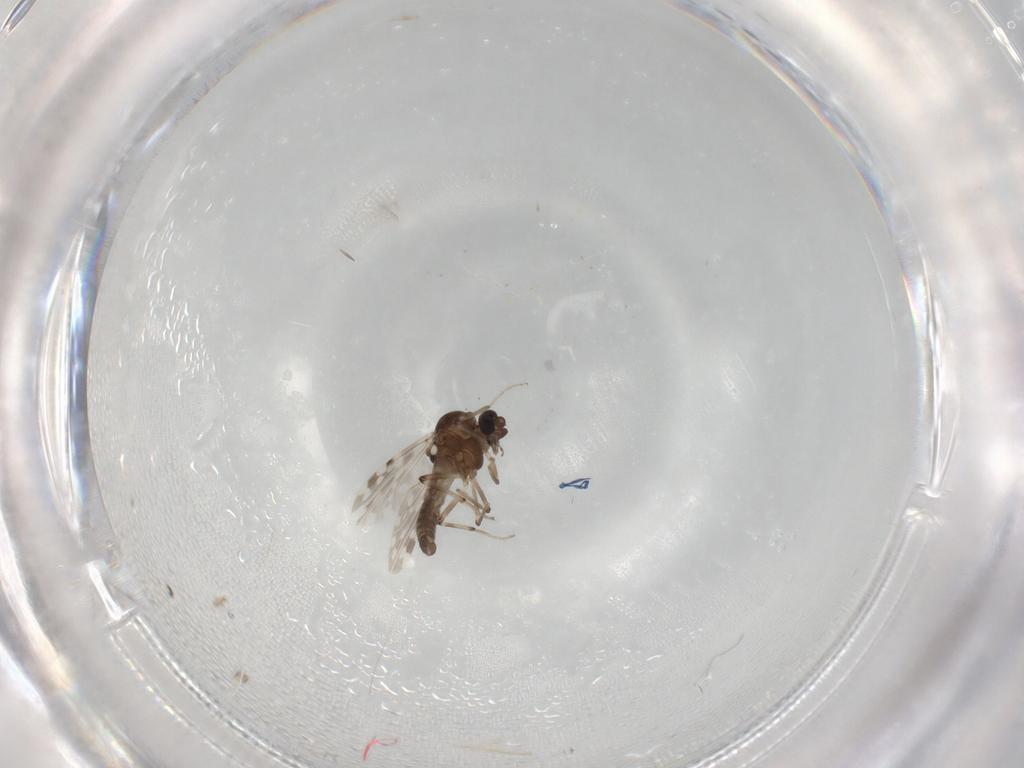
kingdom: Animalia
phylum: Arthropoda
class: Insecta
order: Diptera
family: Ceratopogonidae
